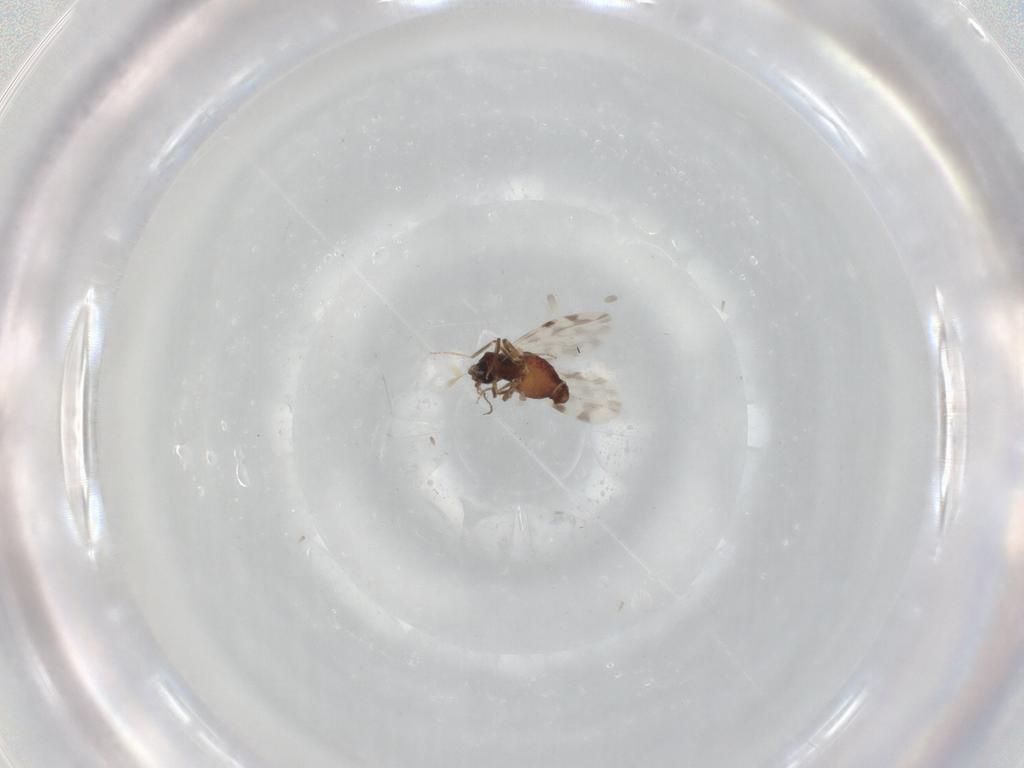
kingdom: Animalia
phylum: Arthropoda
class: Insecta
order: Diptera
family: Ceratopogonidae
